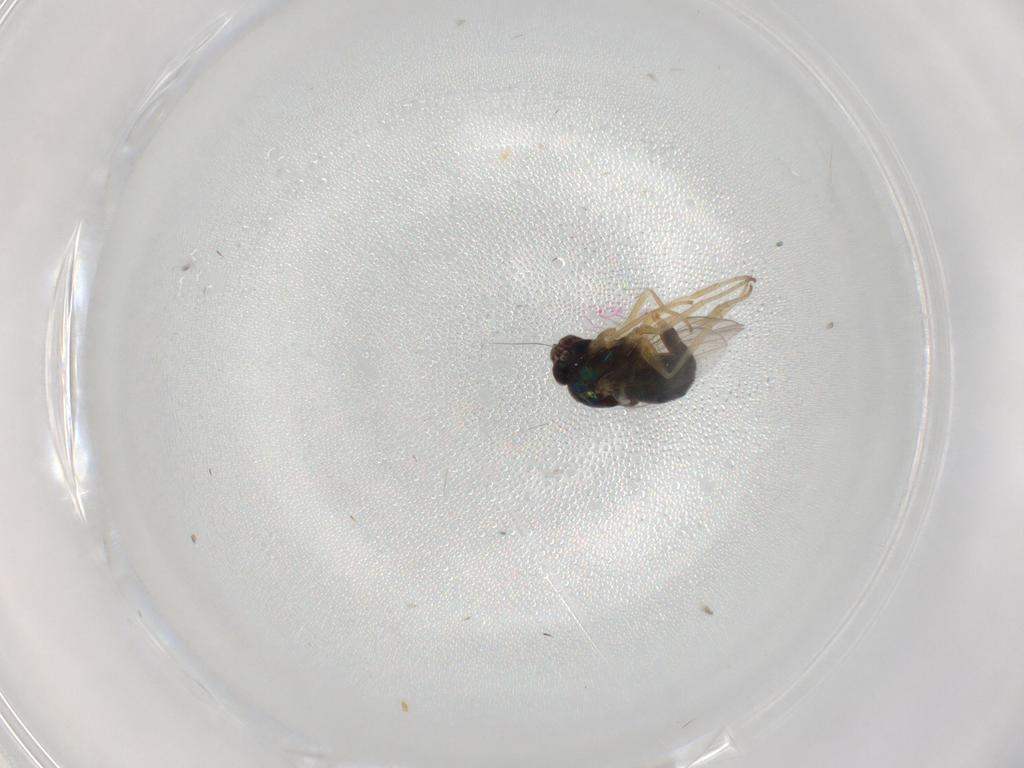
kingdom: Animalia
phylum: Arthropoda
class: Insecta
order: Diptera
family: Dolichopodidae
